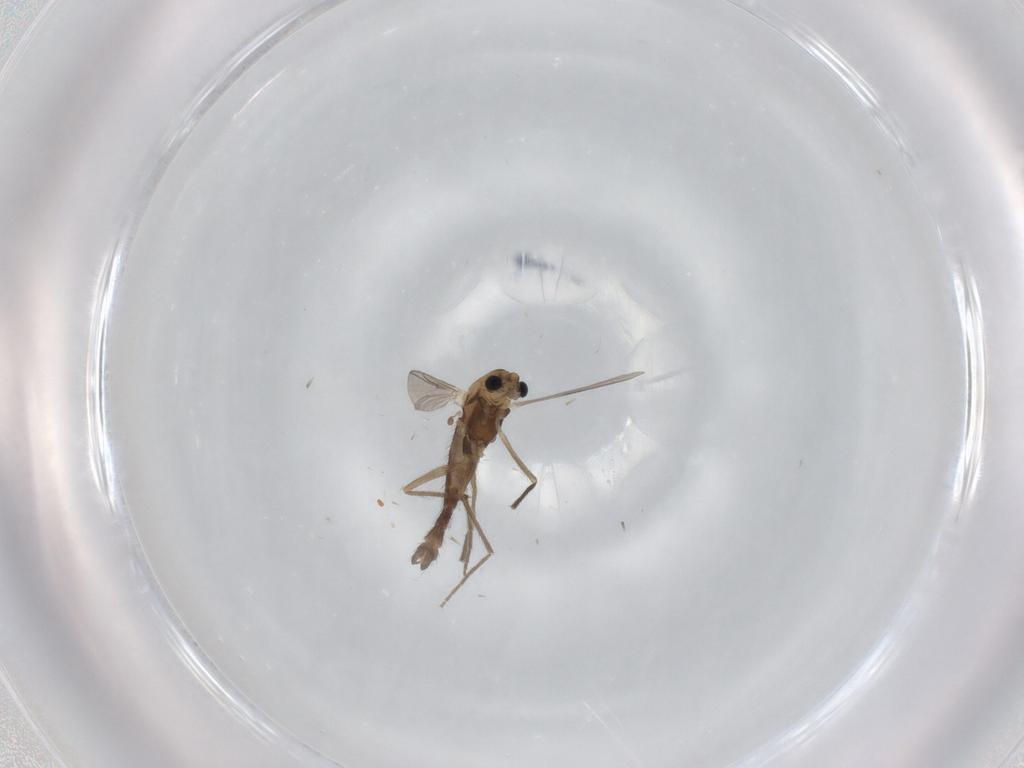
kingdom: Animalia
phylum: Arthropoda
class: Insecta
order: Diptera
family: Chironomidae
